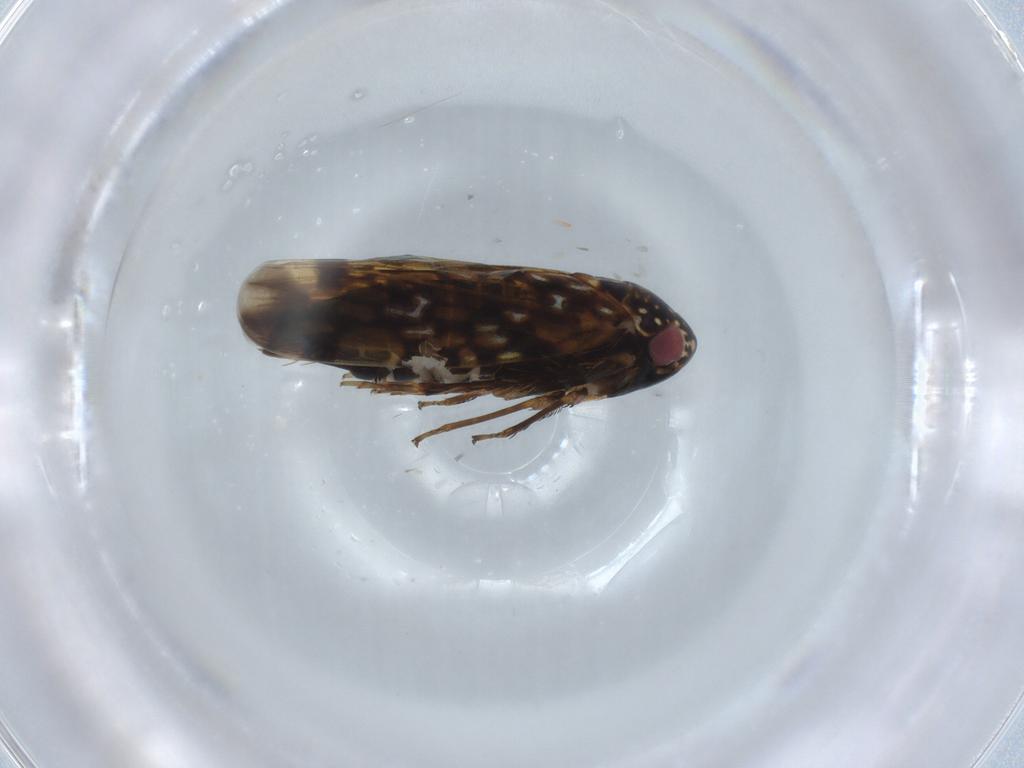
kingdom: Animalia
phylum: Arthropoda
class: Insecta
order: Hemiptera
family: Cicadellidae
